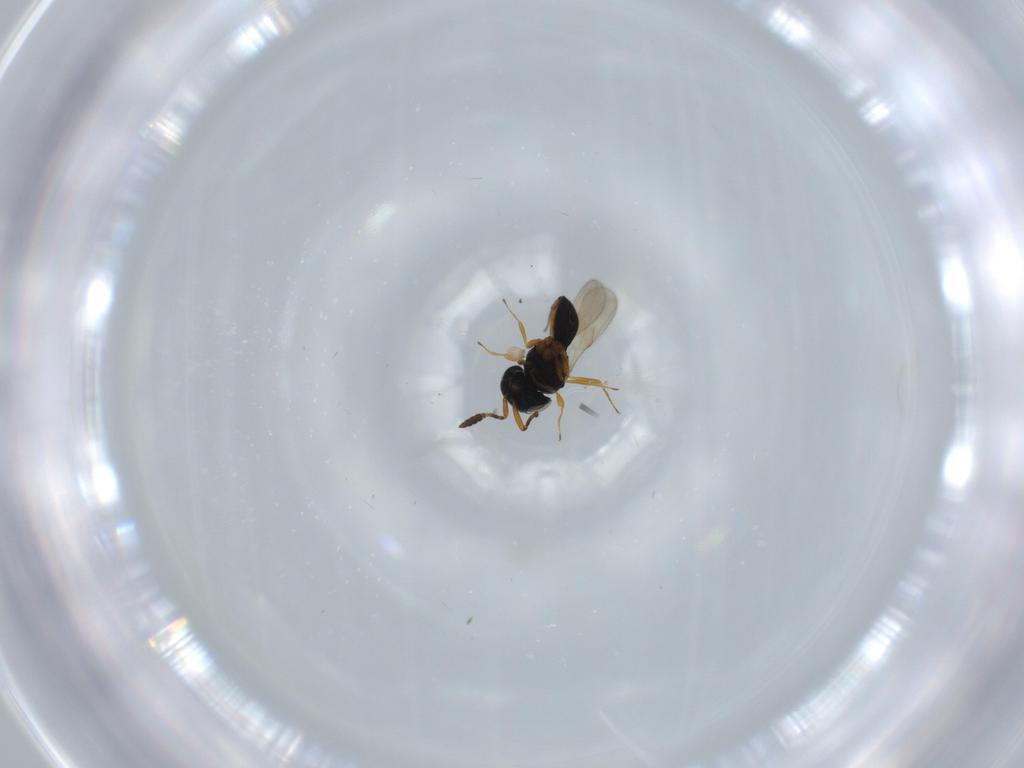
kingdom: Animalia
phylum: Arthropoda
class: Insecta
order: Hymenoptera
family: Scelionidae
